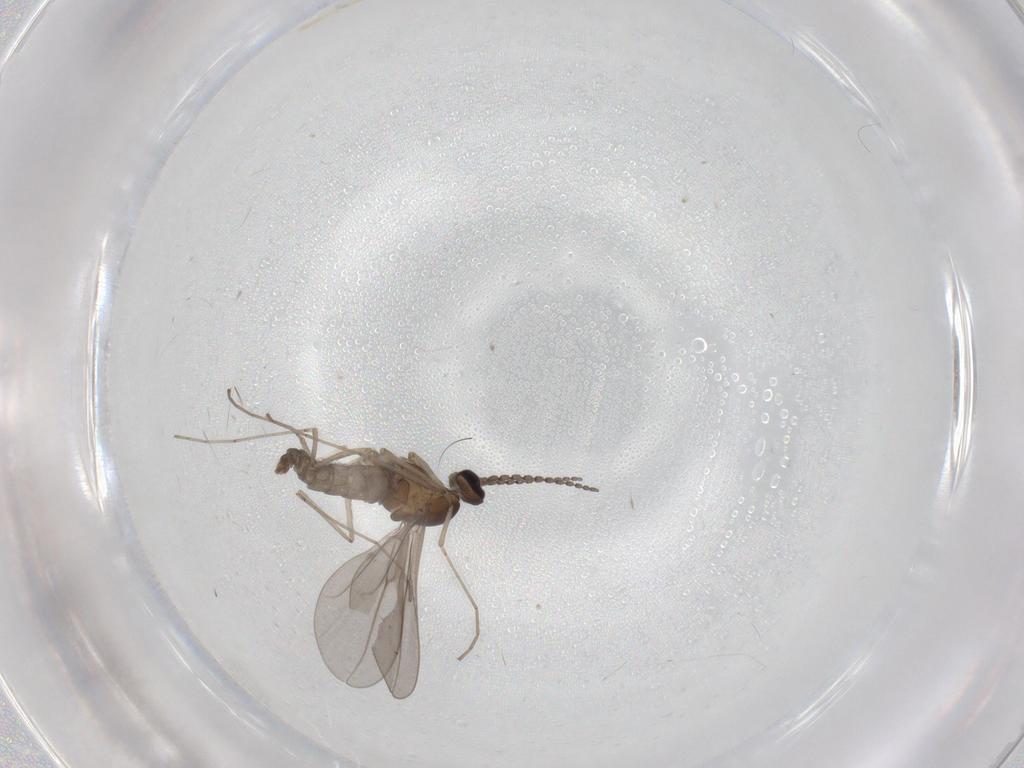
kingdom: Animalia
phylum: Arthropoda
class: Insecta
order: Diptera
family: Cecidomyiidae
